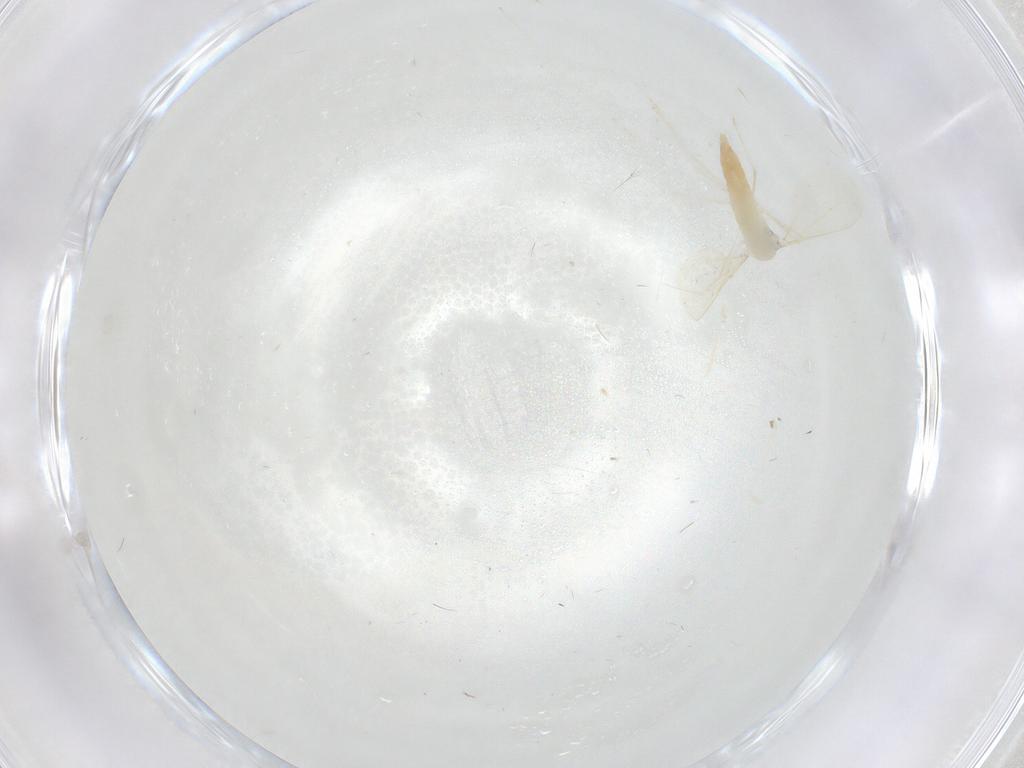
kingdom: Animalia
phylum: Arthropoda
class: Insecta
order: Diptera
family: Cecidomyiidae
